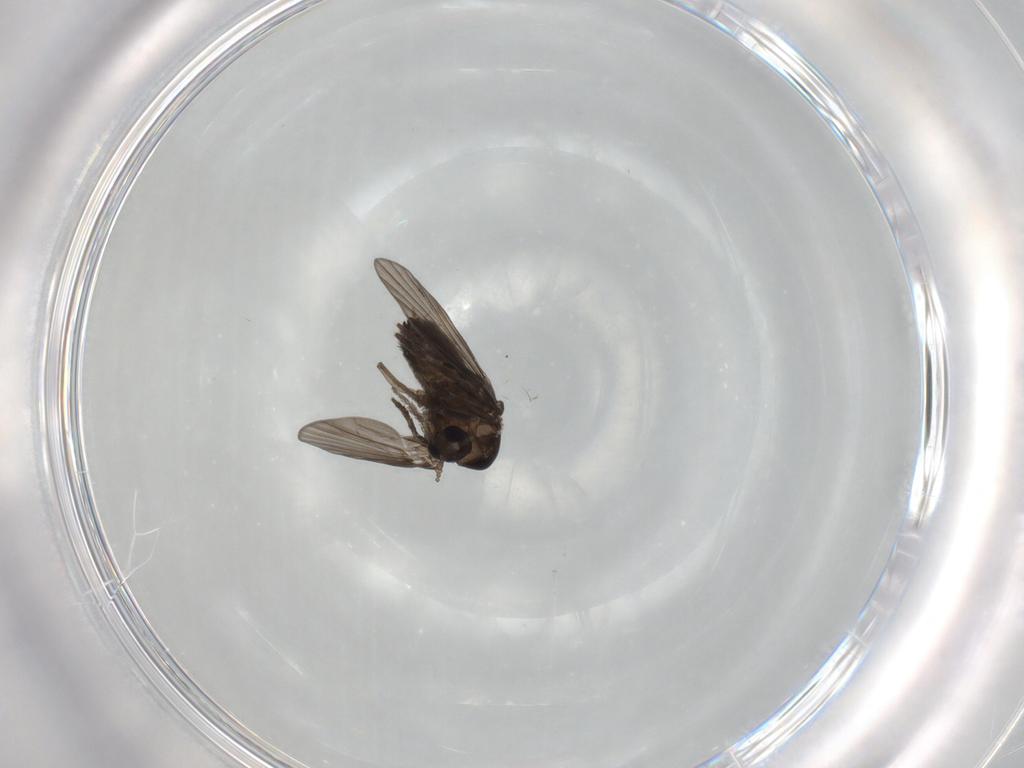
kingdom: Animalia
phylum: Arthropoda
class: Insecta
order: Diptera
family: Psychodidae
